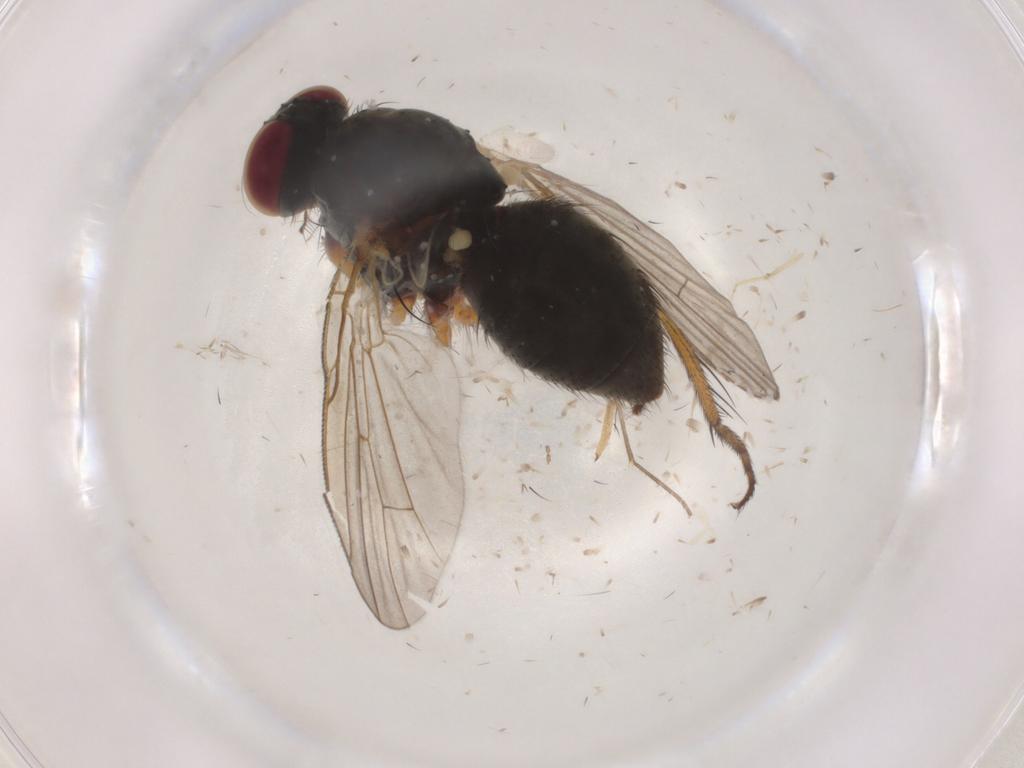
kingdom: Animalia
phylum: Arthropoda
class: Insecta
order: Diptera
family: Muscidae
